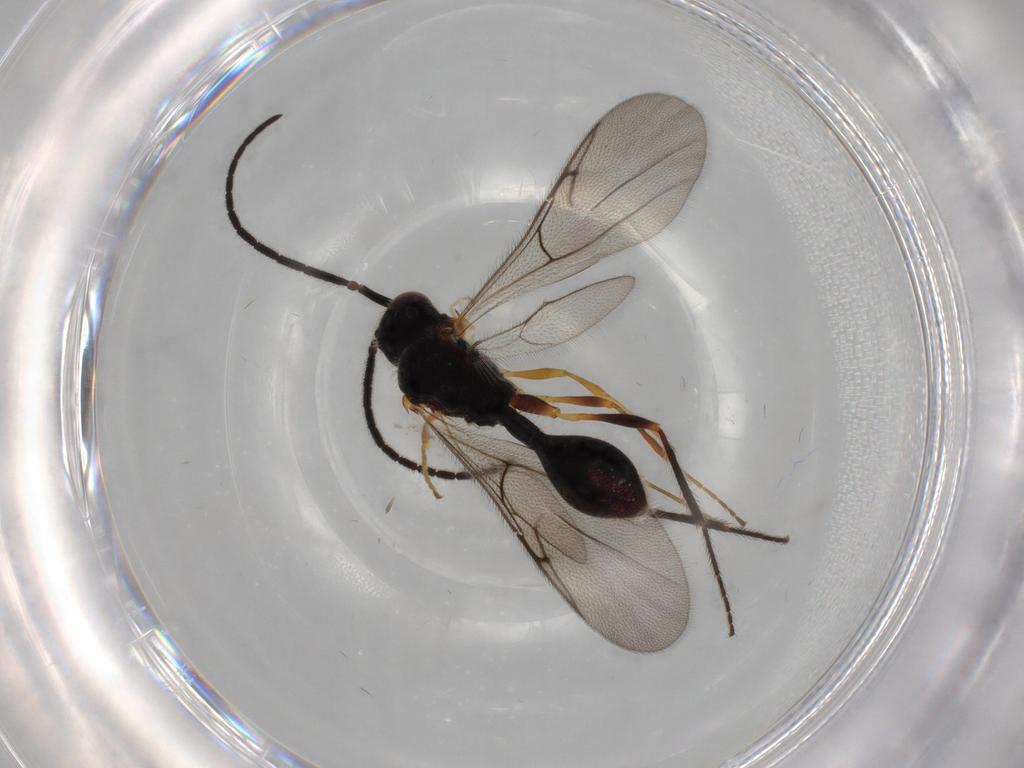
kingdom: Animalia
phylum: Arthropoda
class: Insecta
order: Hymenoptera
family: Diapriidae
